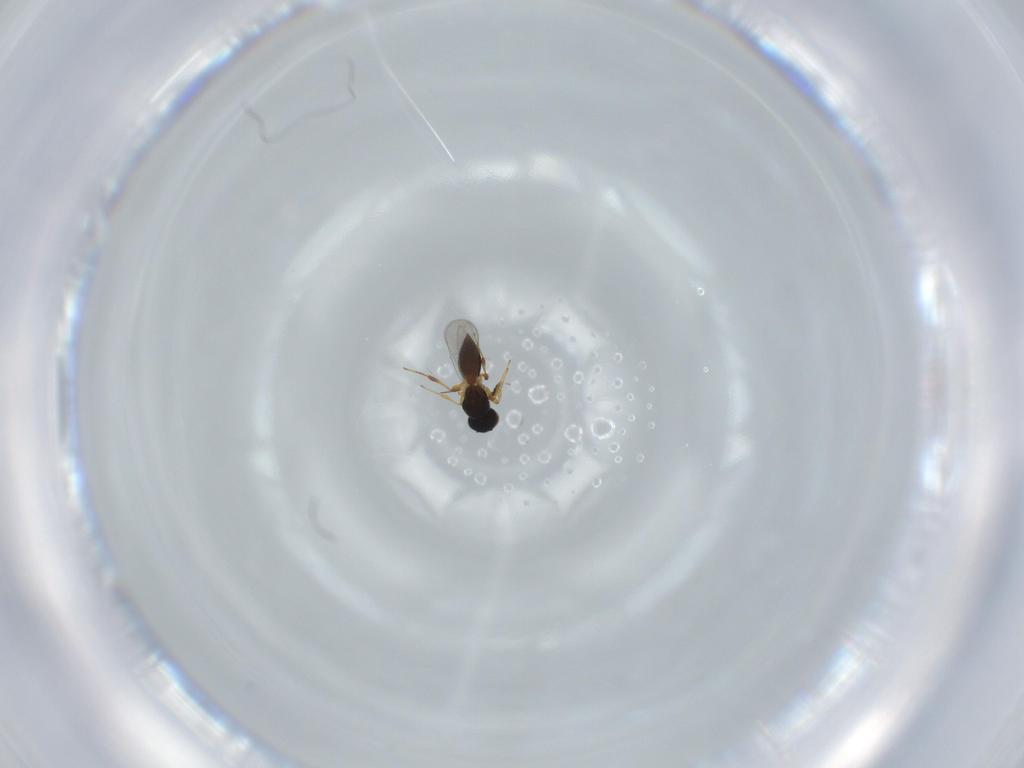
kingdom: Animalia
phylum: Arthropoda
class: Insecta
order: Hymenoptera
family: Platygastridae
